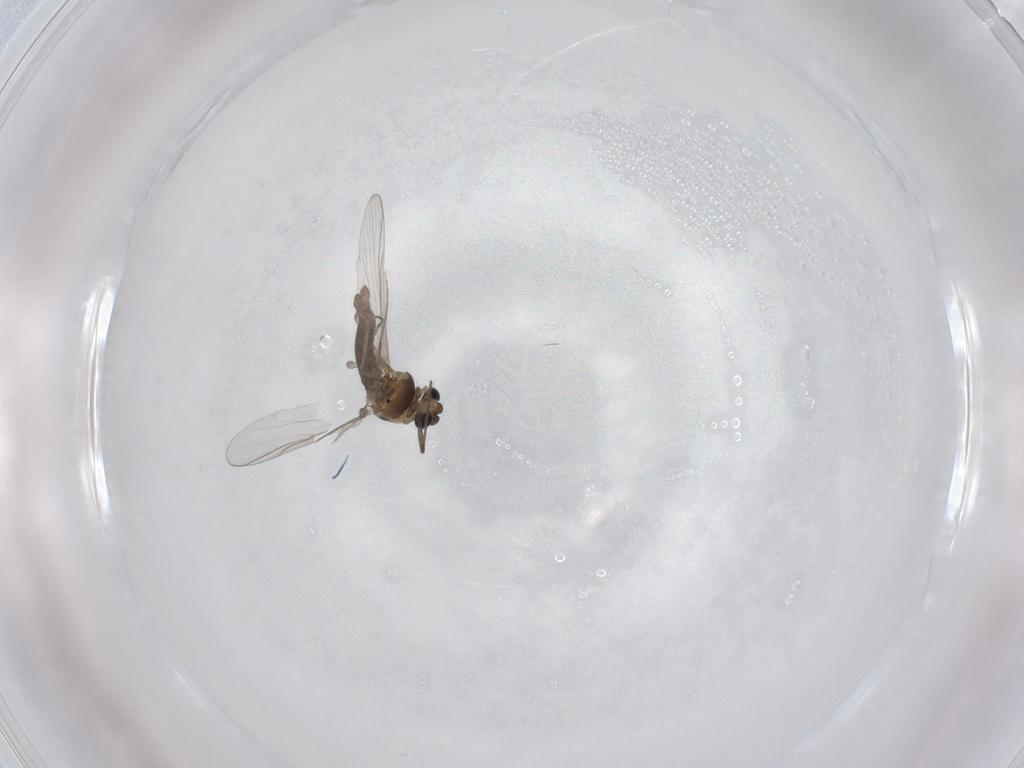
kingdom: Animalia
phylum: Arthropoda
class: Insecta
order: Diptera
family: Chironomidae
